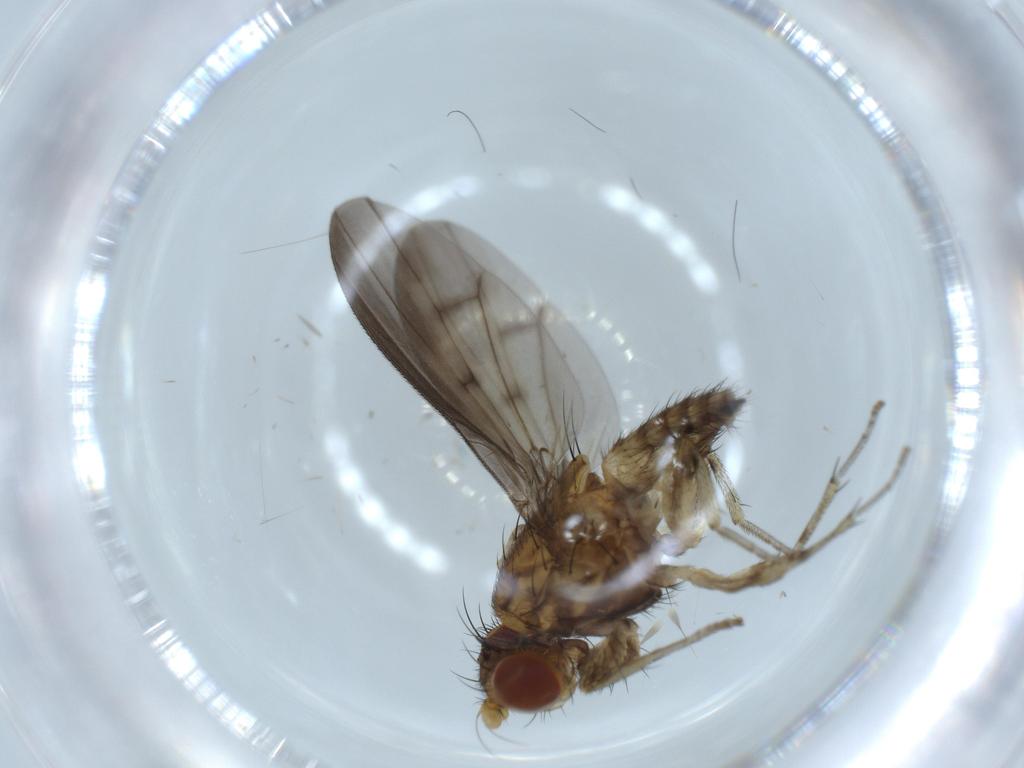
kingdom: Animalia
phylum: Arthropoda
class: Insecta
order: Diptera
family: Lauxaniidae
